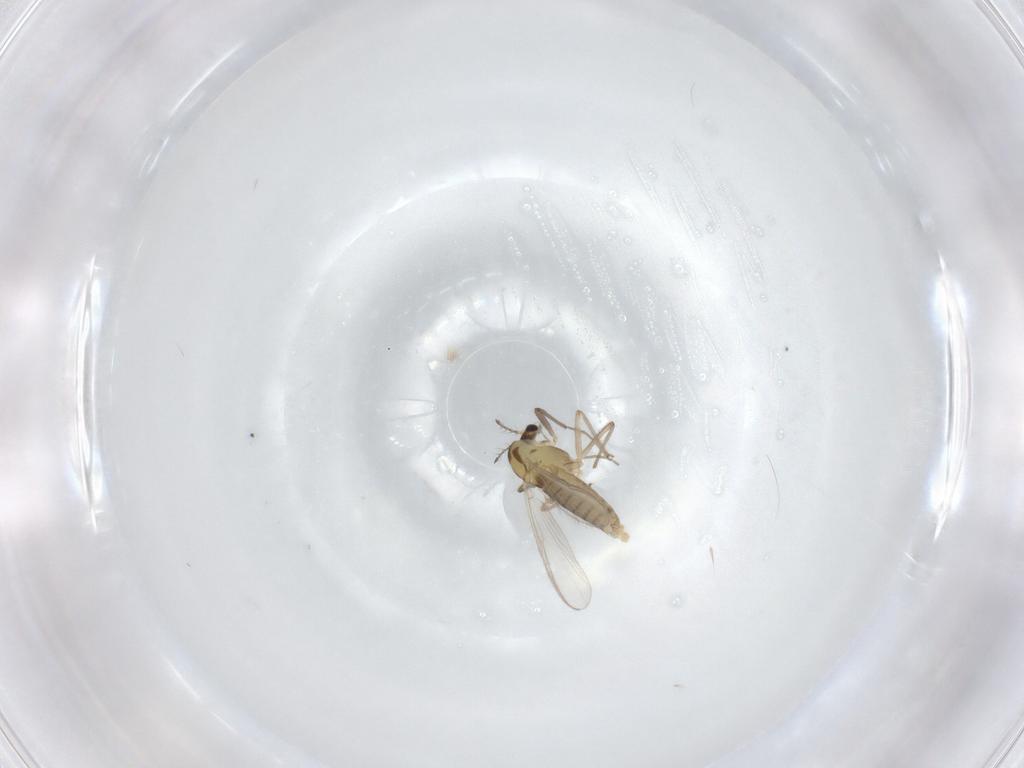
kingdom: Animalia
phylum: Arthropoda
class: Insecta
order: Diptera
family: Chironomidae
